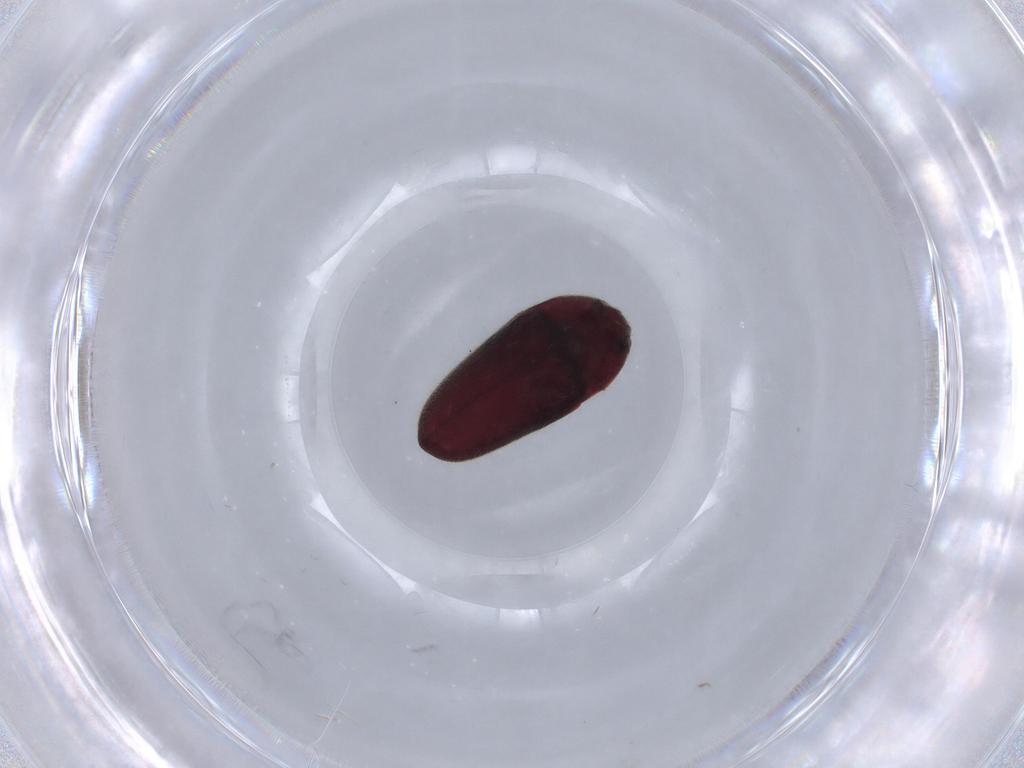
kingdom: Animalia
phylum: Arthropoda
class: Insecta
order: Coleoptera
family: Throscidae
